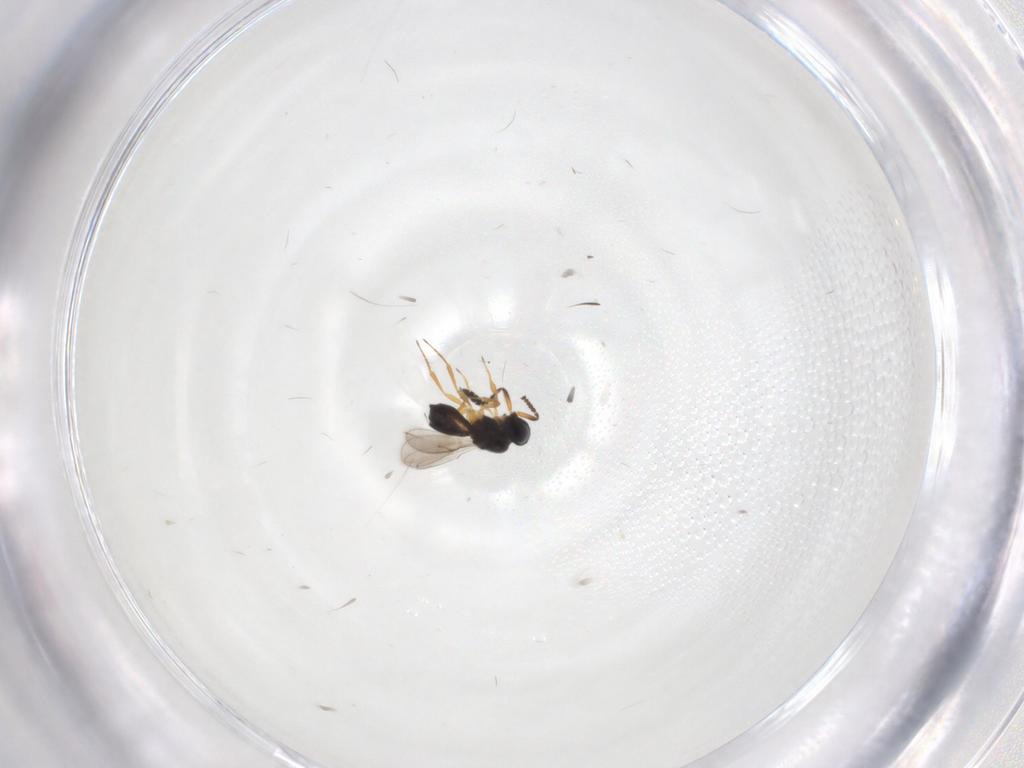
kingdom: Animalia
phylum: Arthropoda
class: Insecta
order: Hymenoptera
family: Scelionidae
